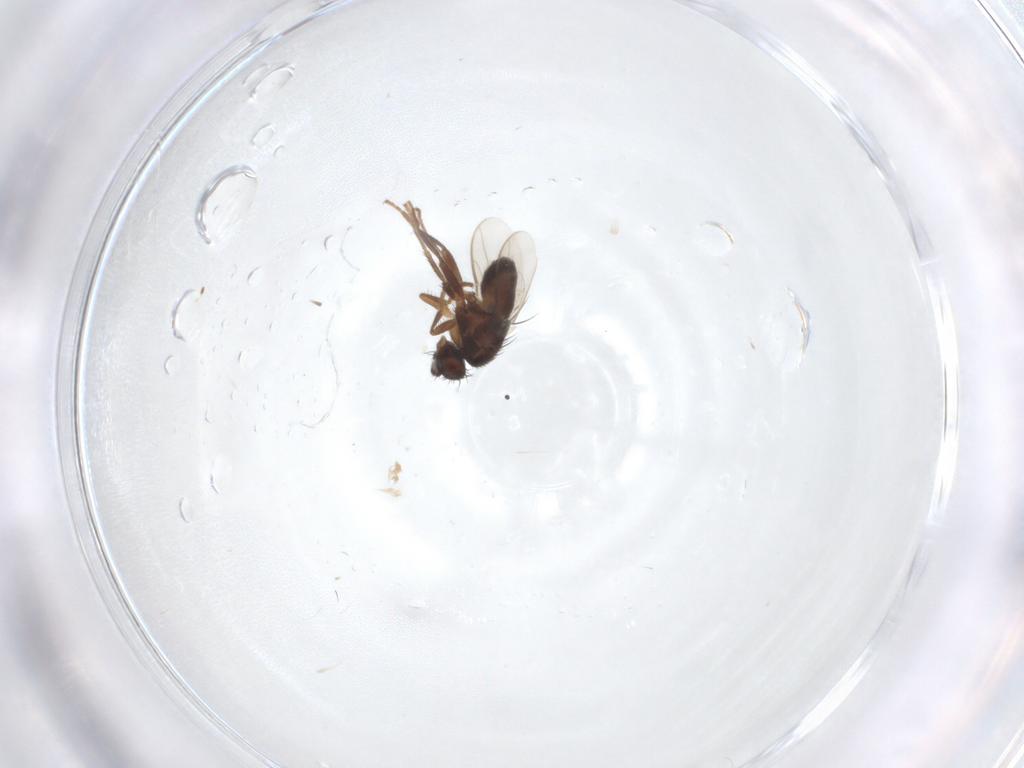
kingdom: Animalia
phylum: Arthropoda
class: Insecta
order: Diptera
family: Sphaeroceridae
